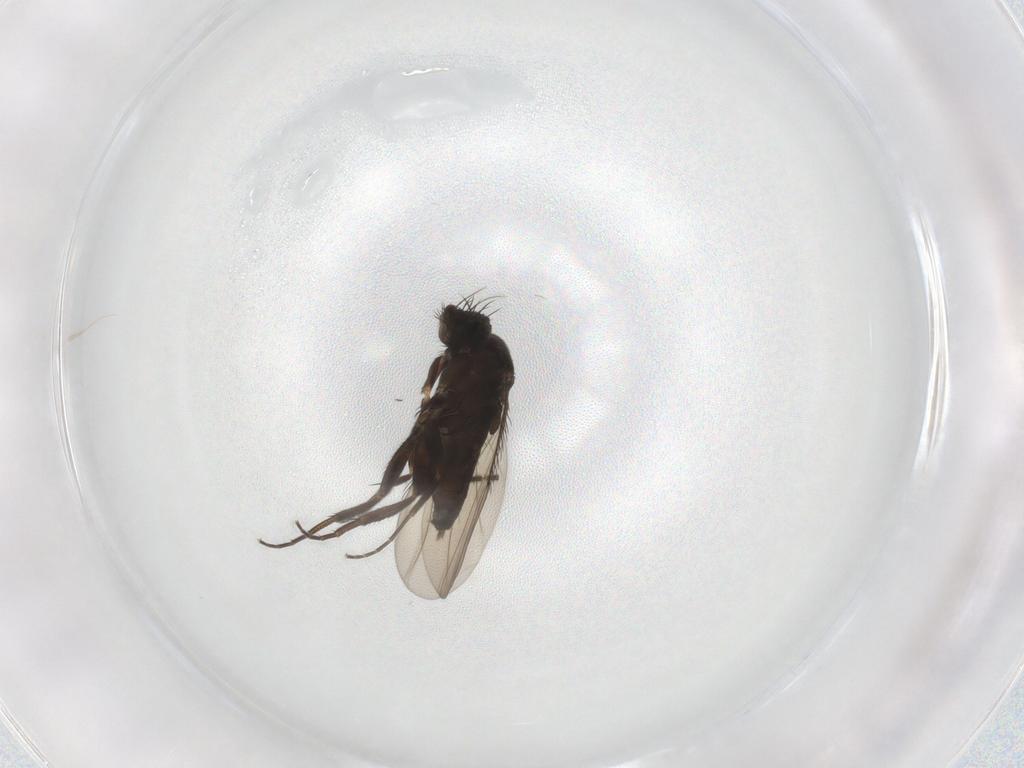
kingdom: Animalia
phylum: Arthropoda
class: Insecta
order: Diptera
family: Phoridae
